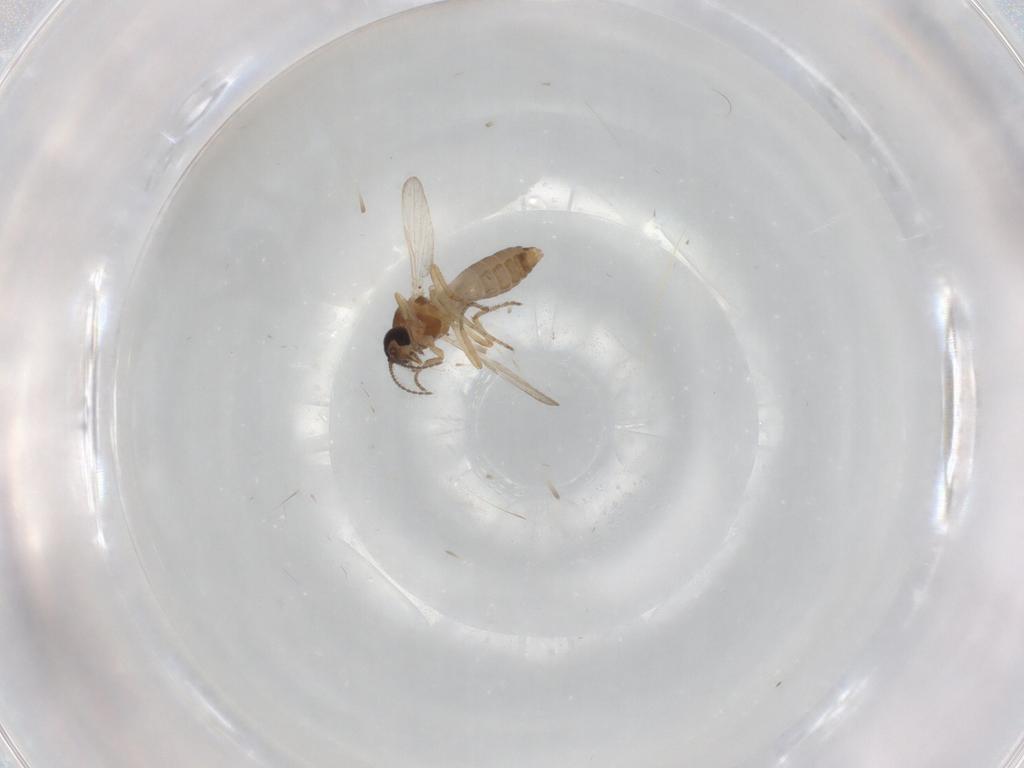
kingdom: Animalia
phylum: Arthropoda
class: Insecta
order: Diptera
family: Ceratopogonidae
